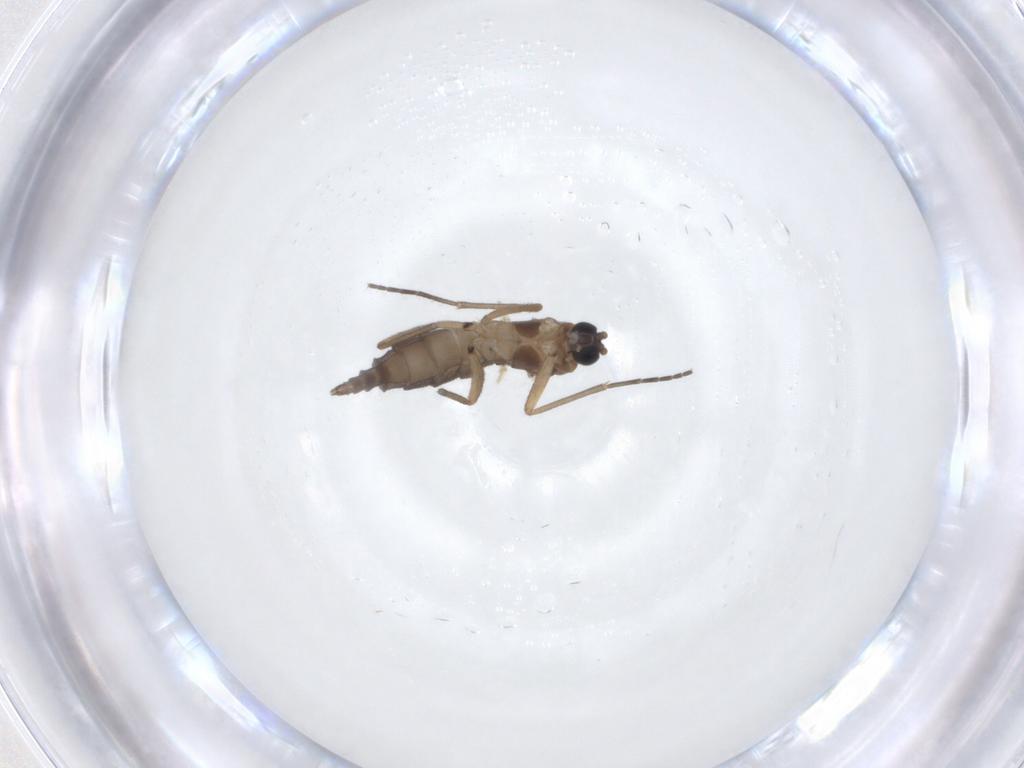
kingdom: Animalia
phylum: Arthropoda
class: Insecta
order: Diptera
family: Sciaridae
